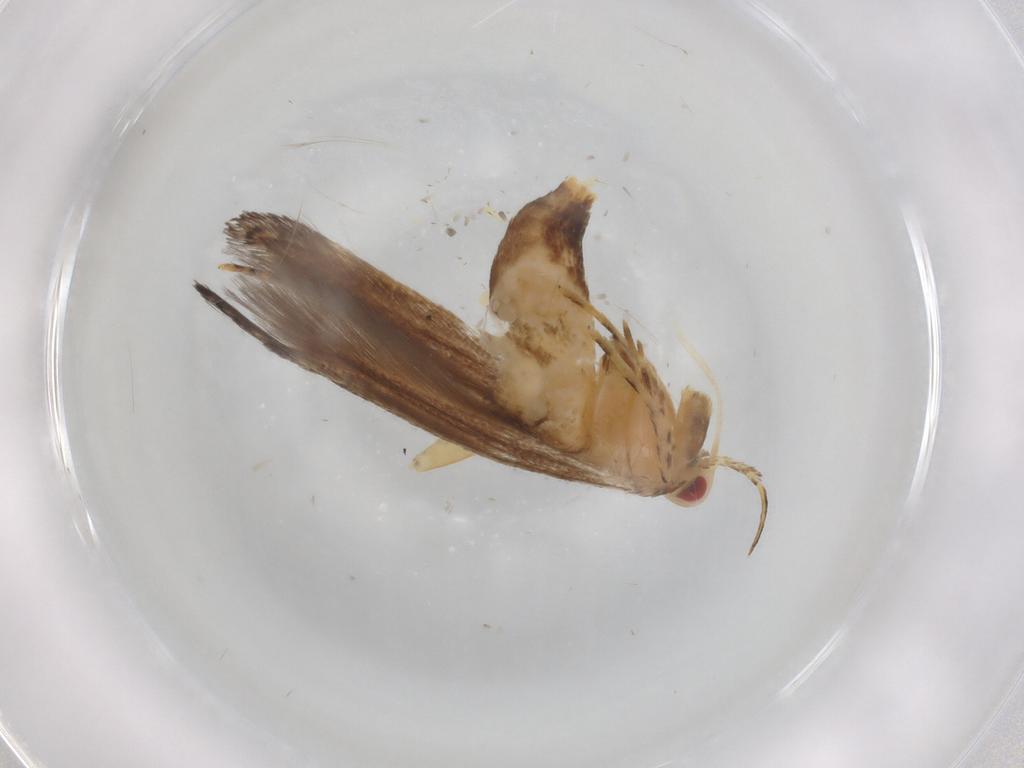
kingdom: Animalia
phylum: Arthropoda
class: Insecta
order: Lepidoptera
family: Cosmopterigidae
